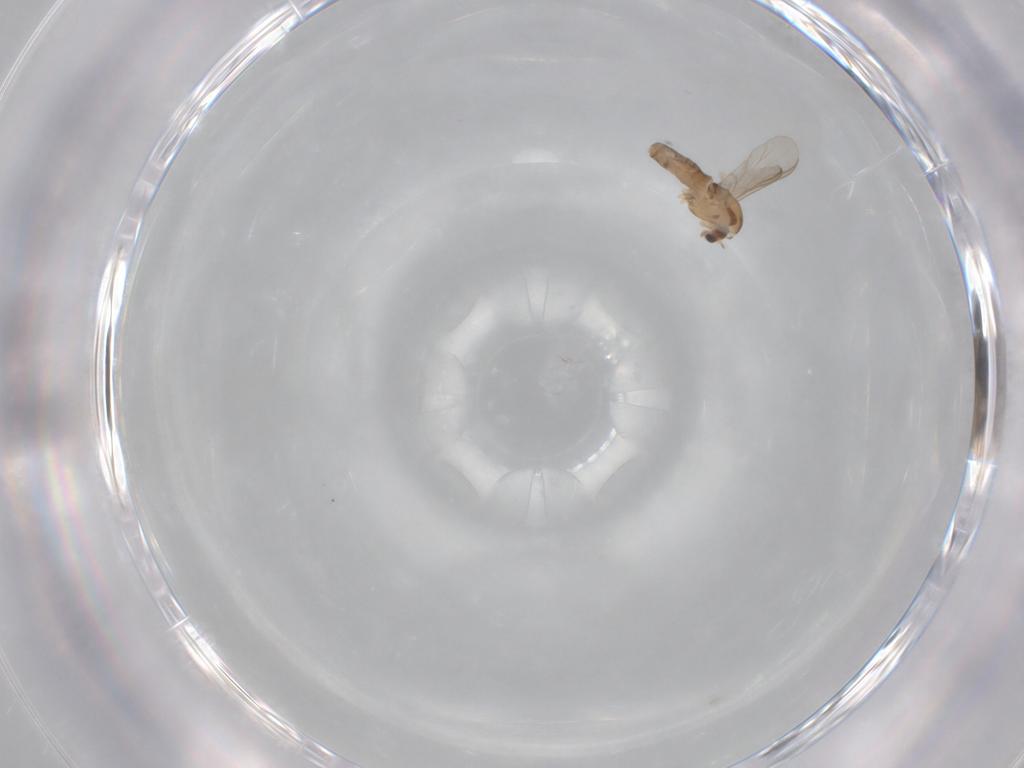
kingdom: Animalia
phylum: Arthropoda
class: Insecta
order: Diptera
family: Chironomidae
